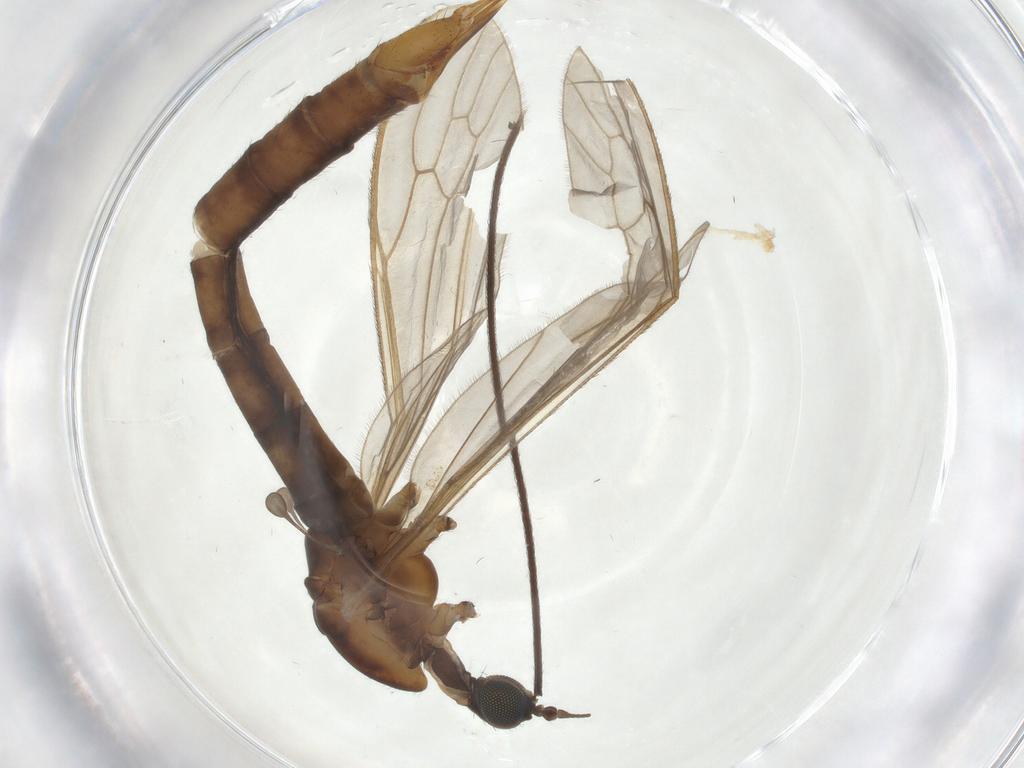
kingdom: Animalia
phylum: Arthropoda
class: Insecta
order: Diptera
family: Limoniidae
